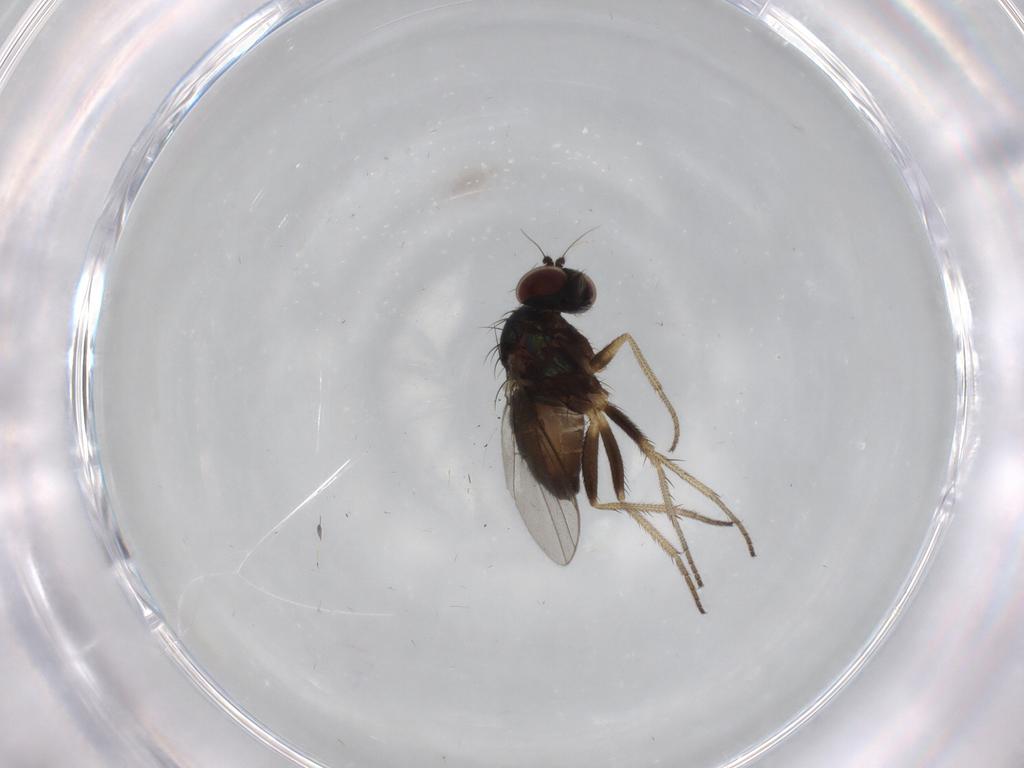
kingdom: Animalia
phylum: Arthropoda
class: Insecta
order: Diptera
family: Dolichopodidae
